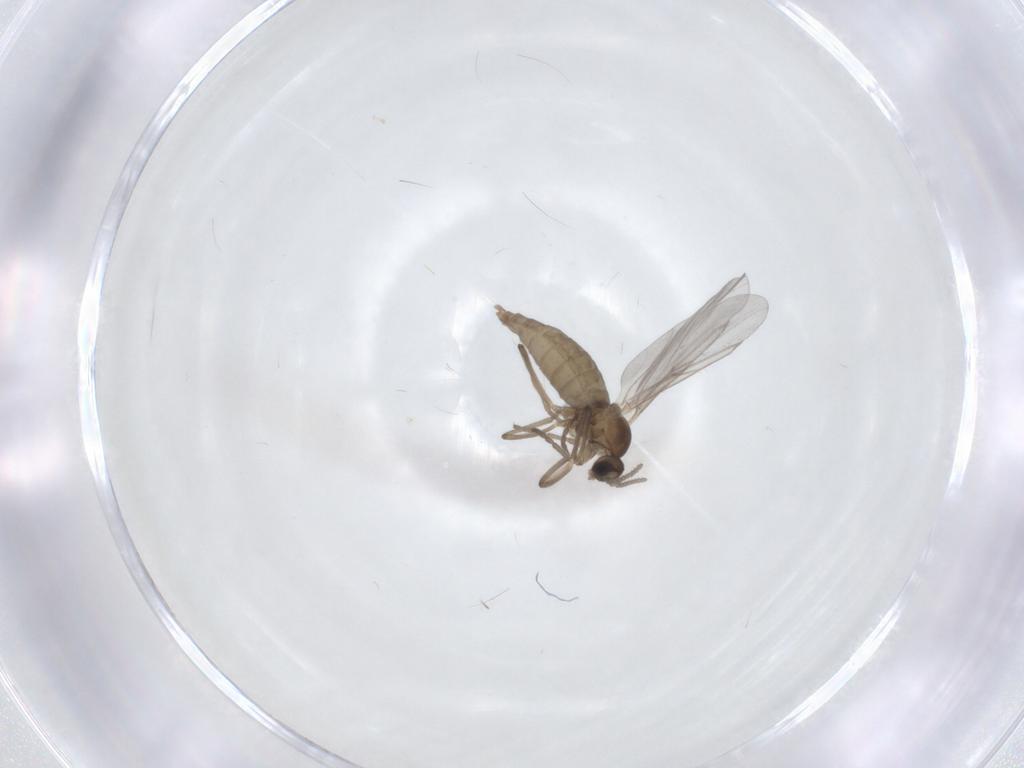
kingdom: Animalia
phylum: Arthropoda
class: Insecta
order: Diptera
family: Cecidomyiidae
